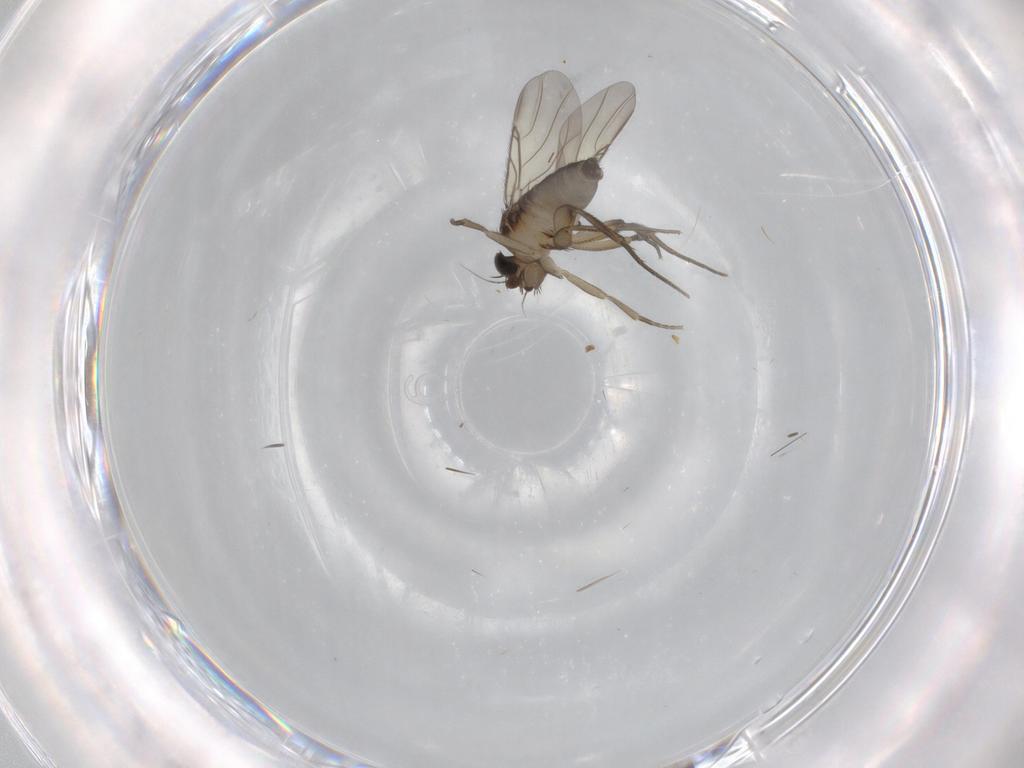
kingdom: Animalia
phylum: Arthropoda
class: Insecta
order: Diptera
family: Phoridae
